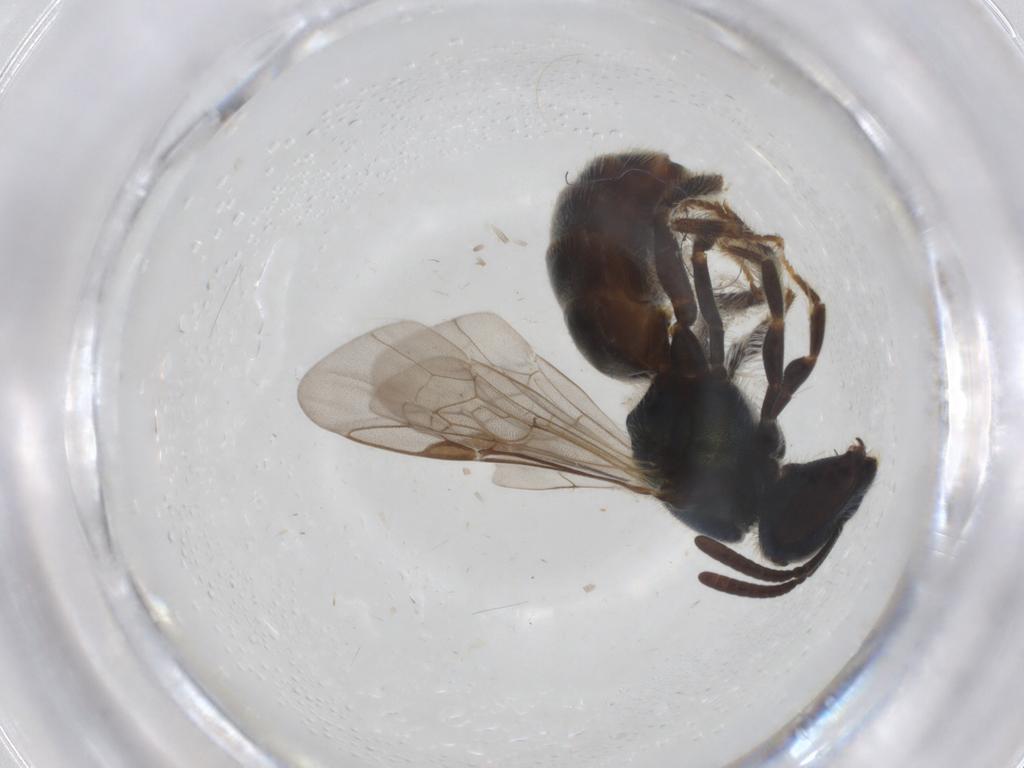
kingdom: Animalia
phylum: Arthropoda
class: Insecta
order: Hymenoptera
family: Halictidae
